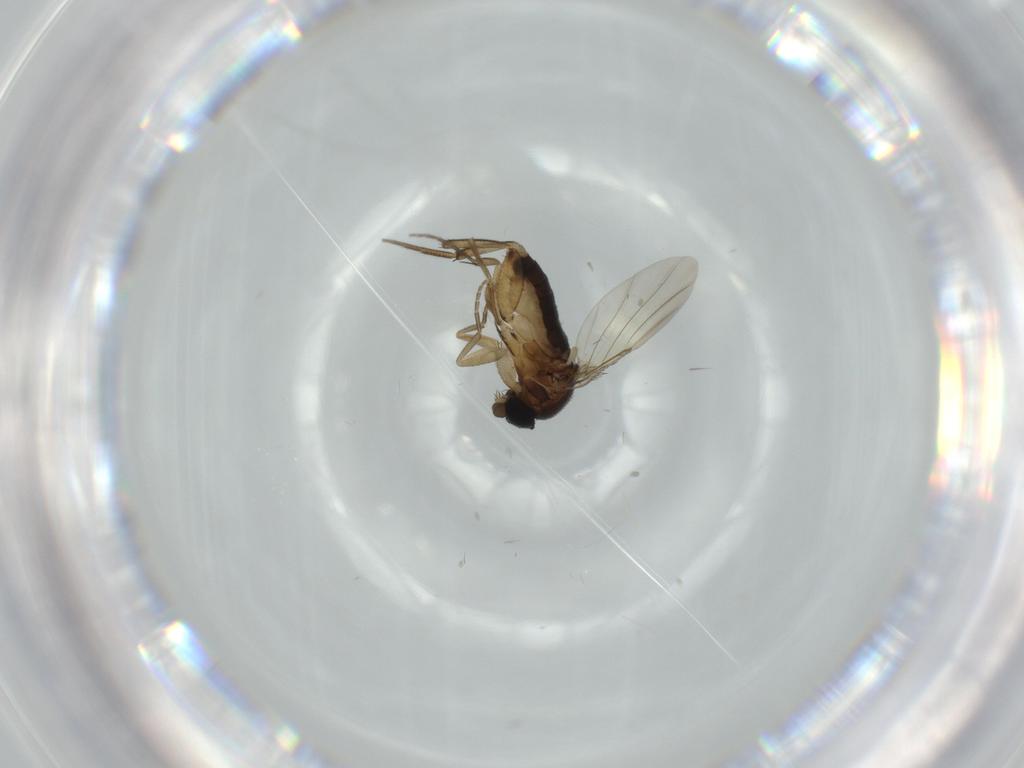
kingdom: Animalia
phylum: Arthropoda
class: Insecta
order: Diptera
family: Phoridae
